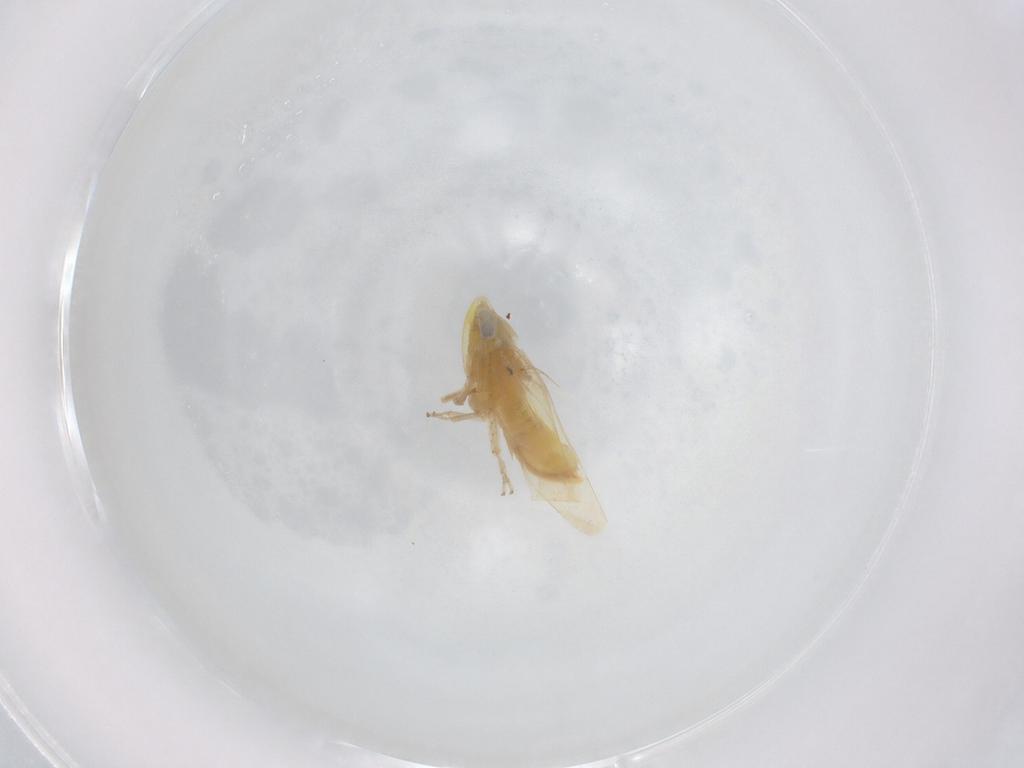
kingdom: Animalia
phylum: Arthropoda
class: Insecta
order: Hemiptera
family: Cicadellidae
